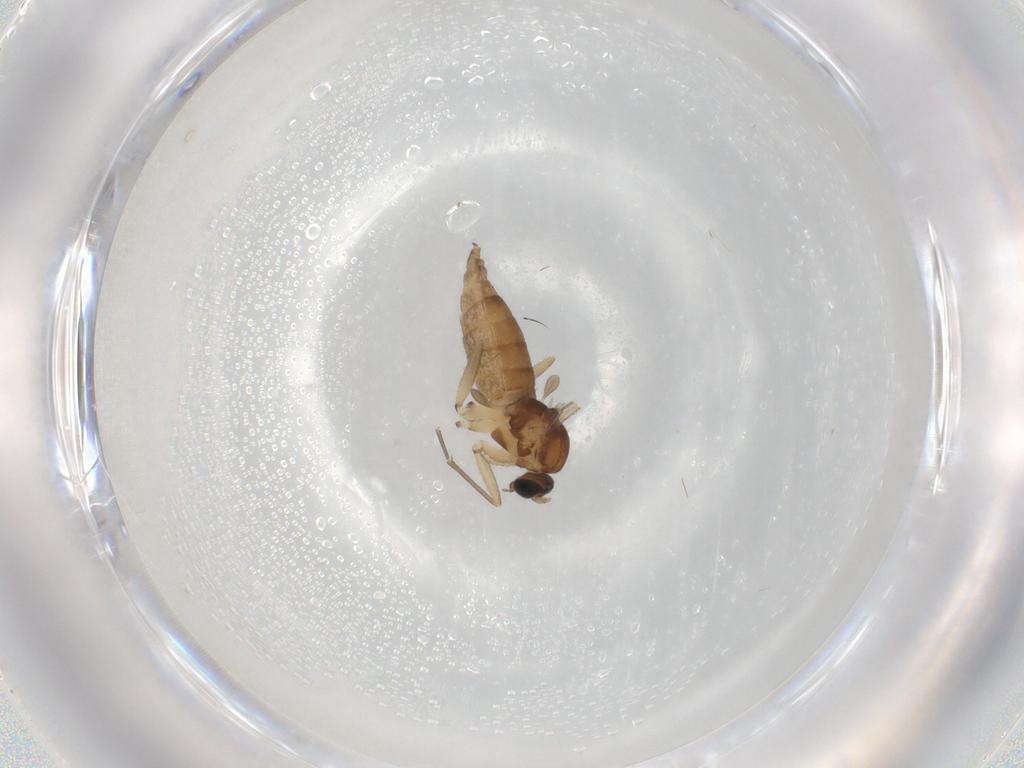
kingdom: Animalia
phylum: Arthropoda
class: Insecta
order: Diptera
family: Sciaridae
